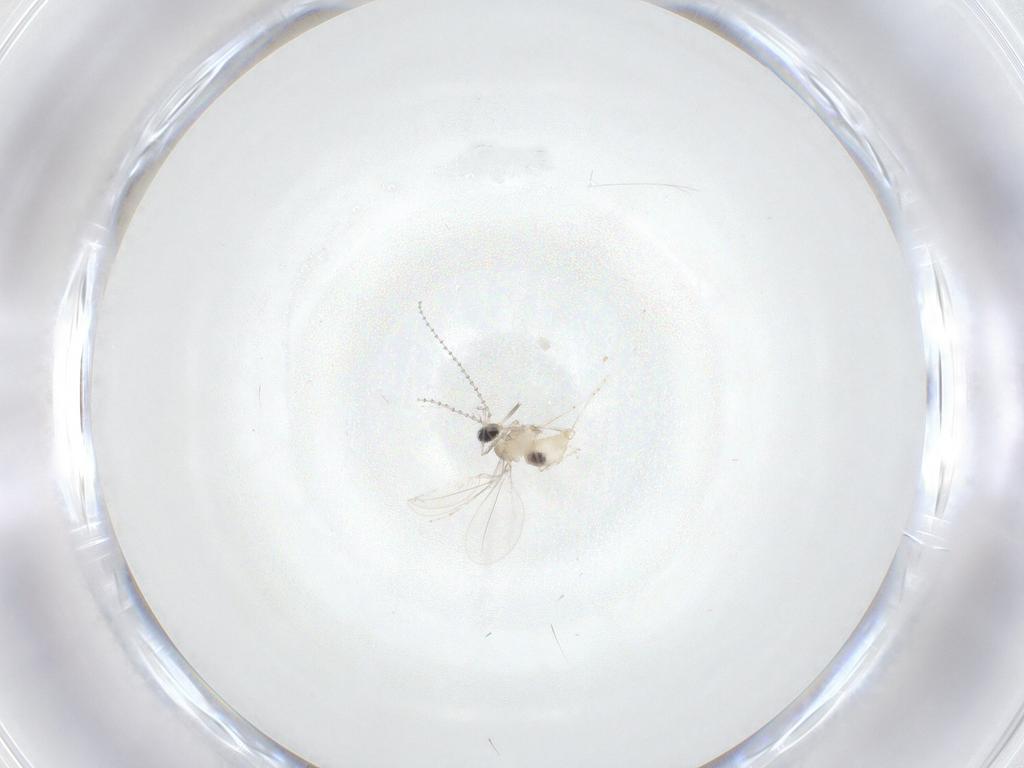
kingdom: Animalia
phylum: Arthropoda
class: Insecta
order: Diptera
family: Cecidomyiidae
